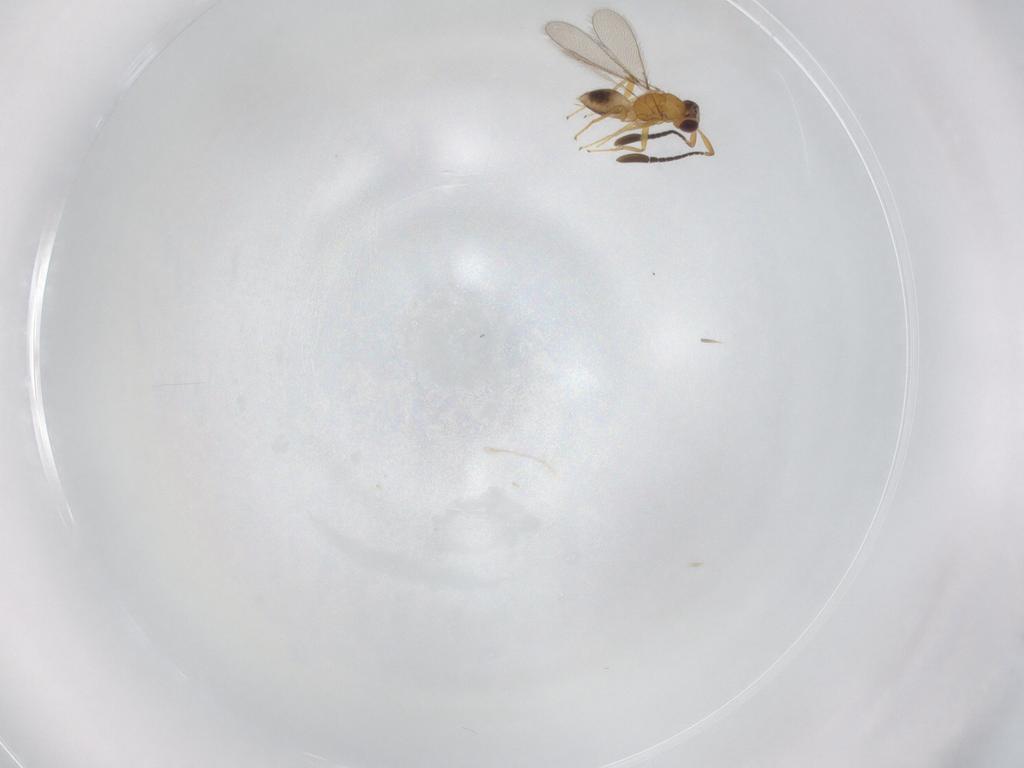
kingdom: Animalia
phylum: Arthropoda
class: Insecta
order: Hymenoptera
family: Mymaridae
